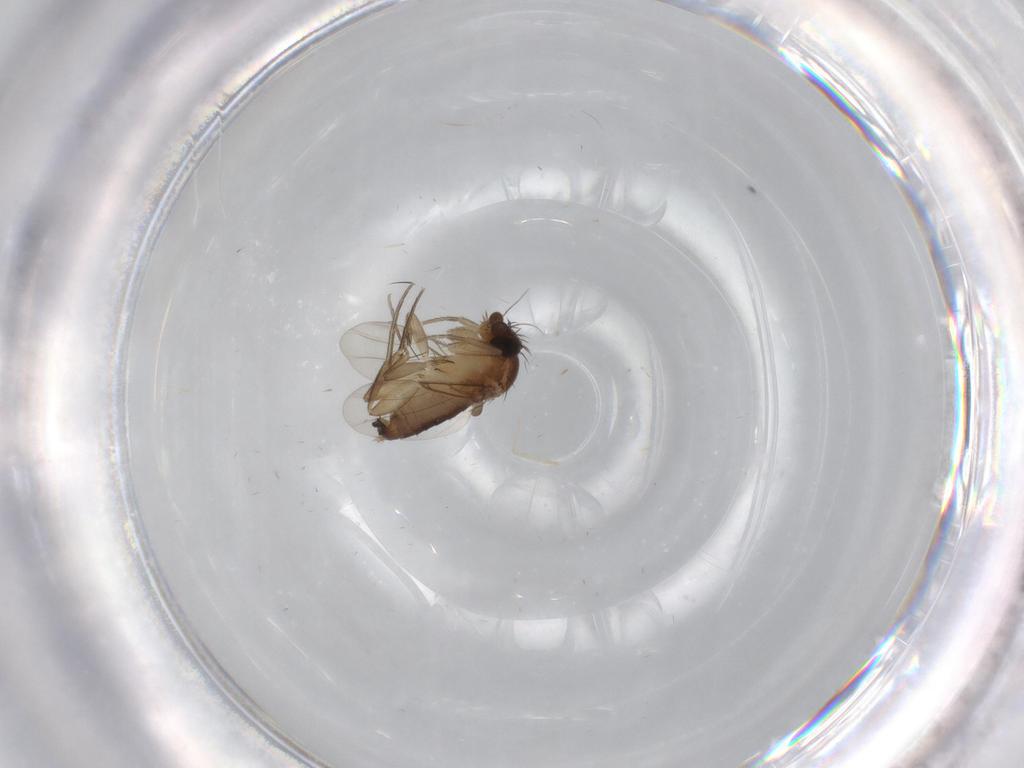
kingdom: Animalia
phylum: Arthropoda
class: Insecta
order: Diptera
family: Phoridae
